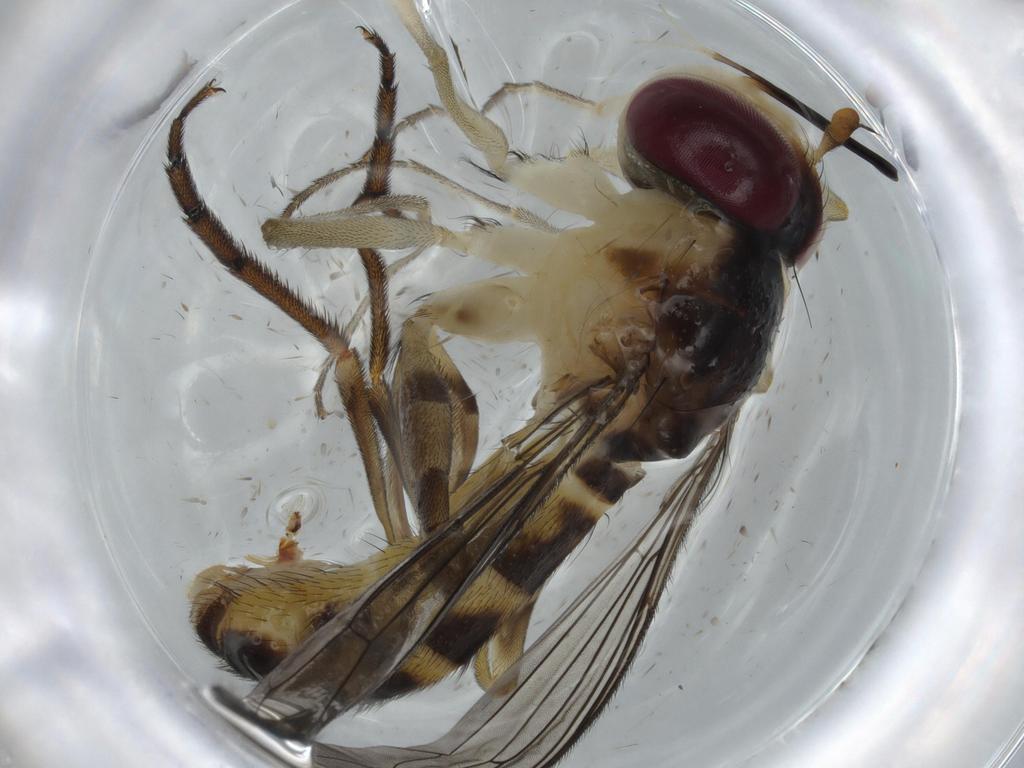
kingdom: Animalia
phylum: Arthropoda
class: Insecta
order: Diptera
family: Conopidae
